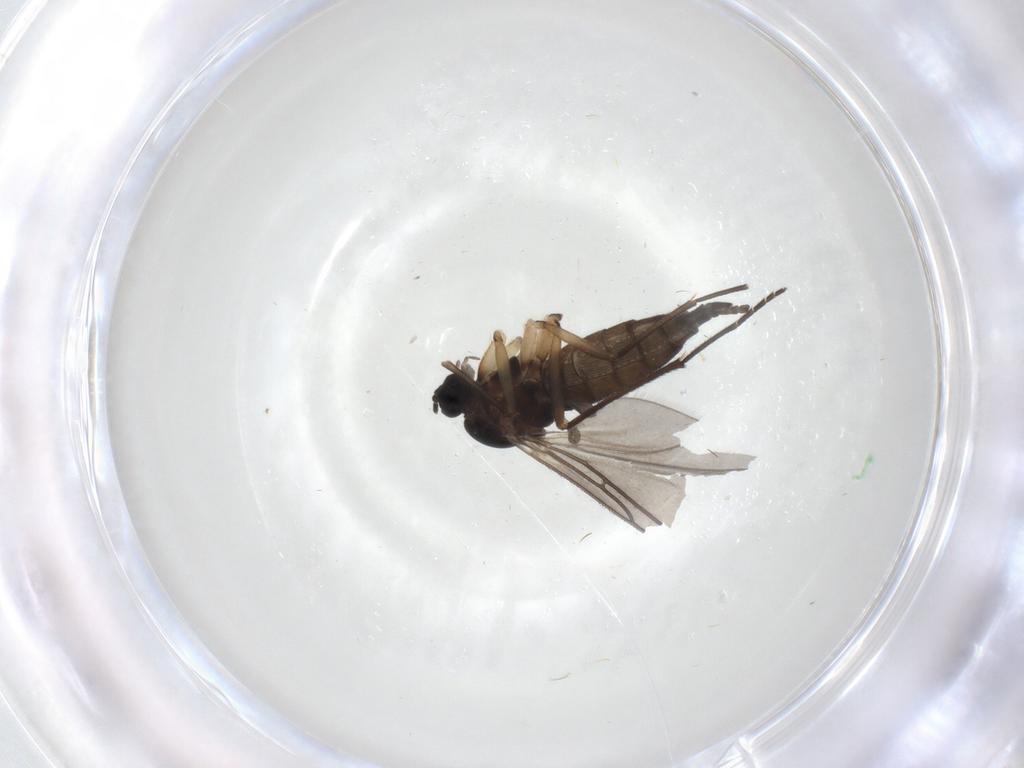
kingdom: Animalia
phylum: Arthropoda
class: Insecta
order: Diptera
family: Sciaridae
